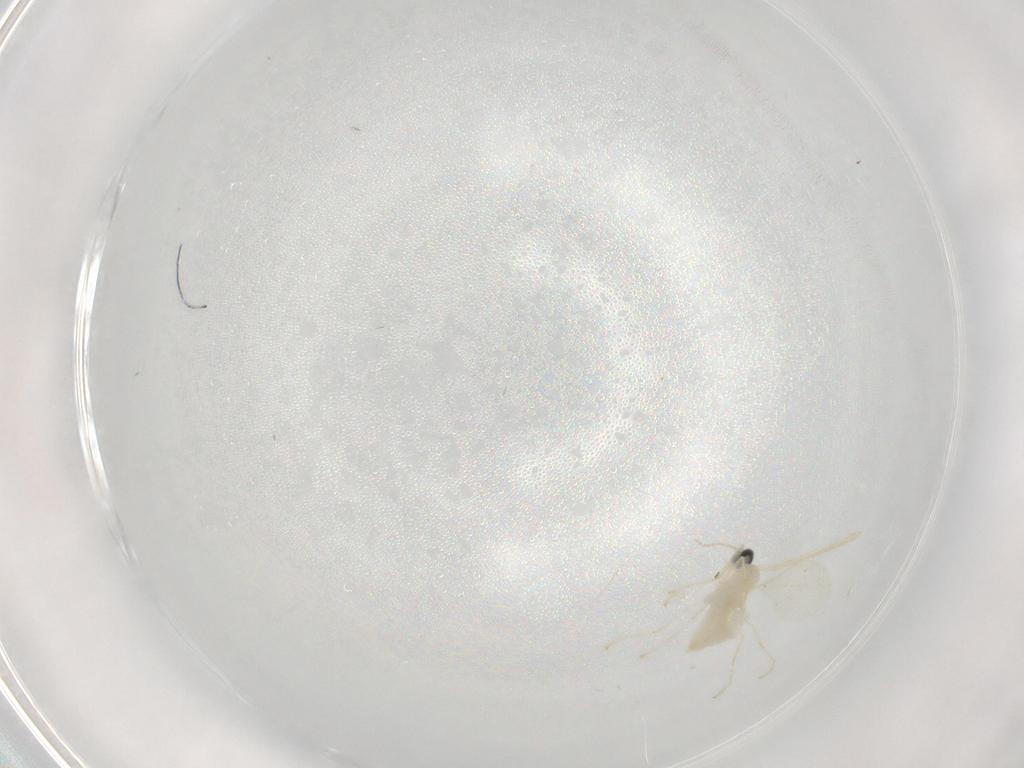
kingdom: Animalia
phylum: Arthropoda
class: Insecta
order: Diptera
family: Cecidomyiidae
